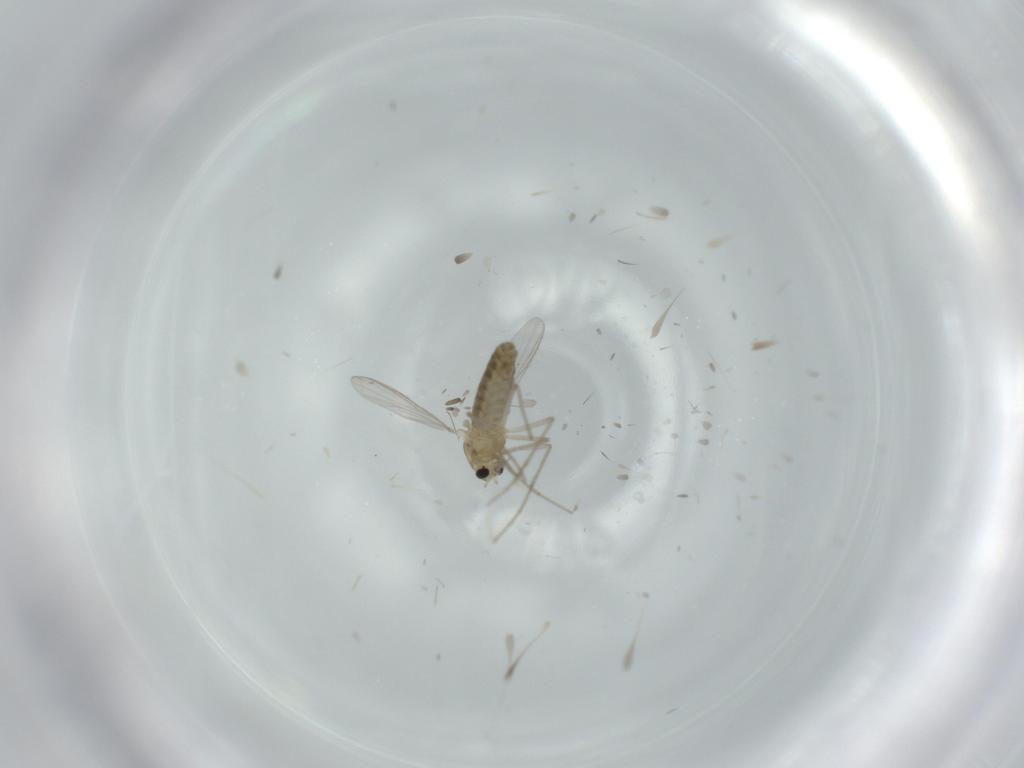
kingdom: Animalia
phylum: Arthropoda
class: Insecta
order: Diptera
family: Chironomidae
